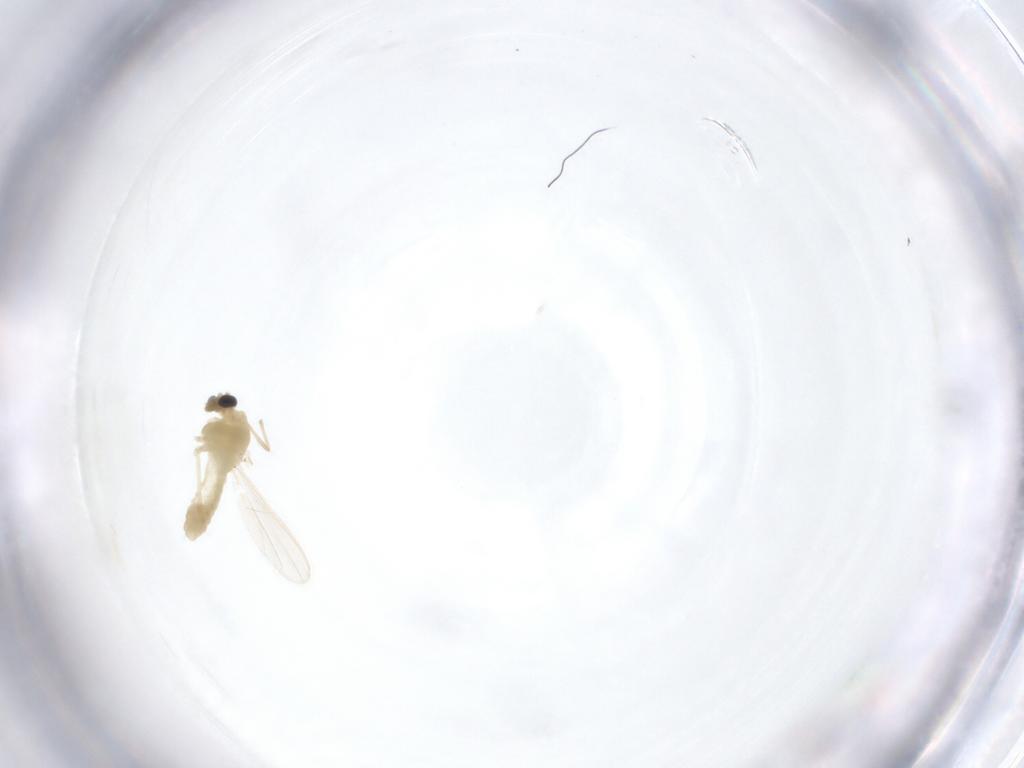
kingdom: Animalia
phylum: Arthropoda
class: Insecta
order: Diptera
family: Chironomidae
